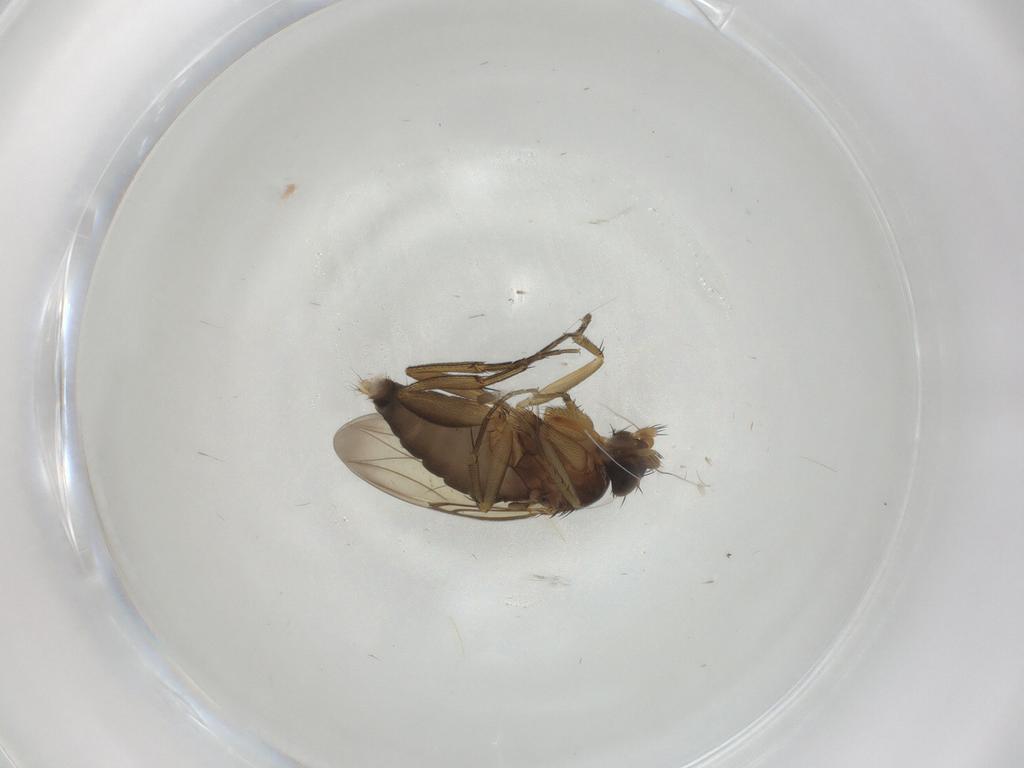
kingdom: Animalia
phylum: Arthropoda
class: Insecta
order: Diptera
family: Phoridae
